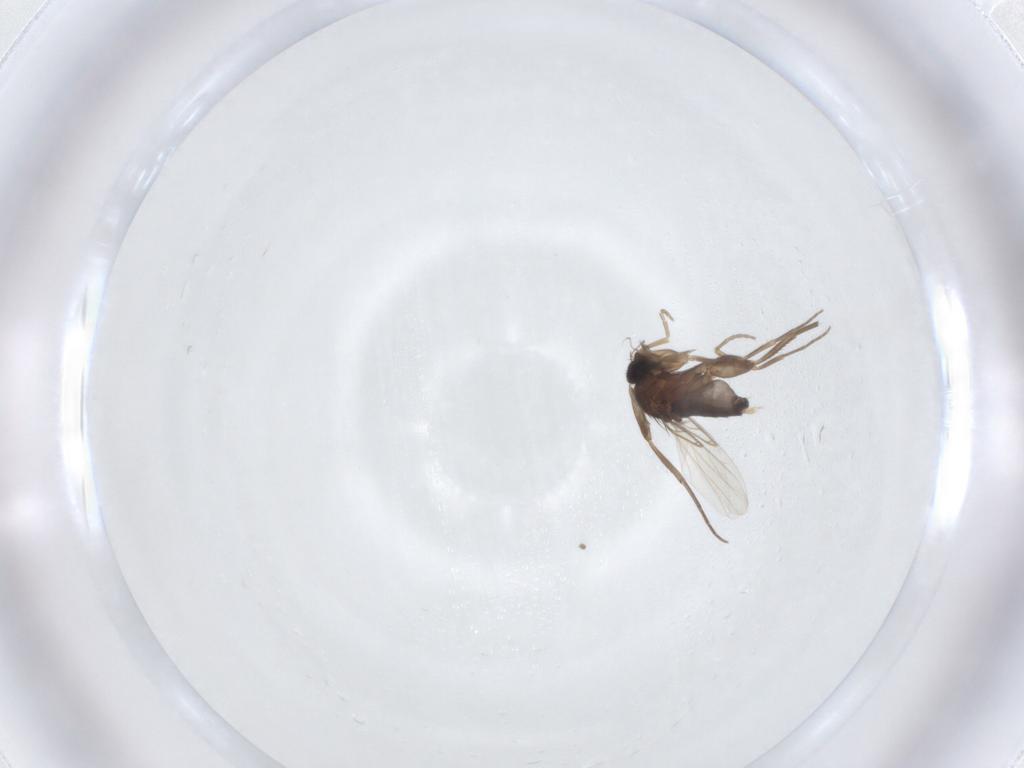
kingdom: Animalia
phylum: Arthropoda
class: Insecta
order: Diptera
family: Phoridae
